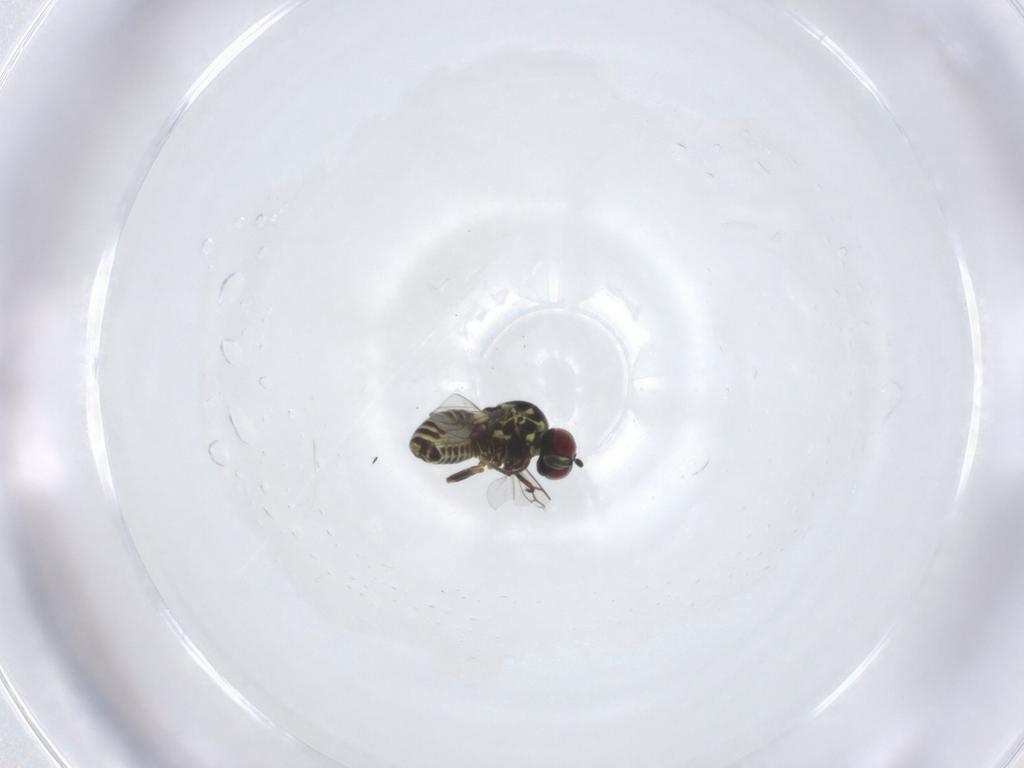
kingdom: Animalia
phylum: Arthropoda
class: Insecta
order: Diptera
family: Mythicomyiidae
